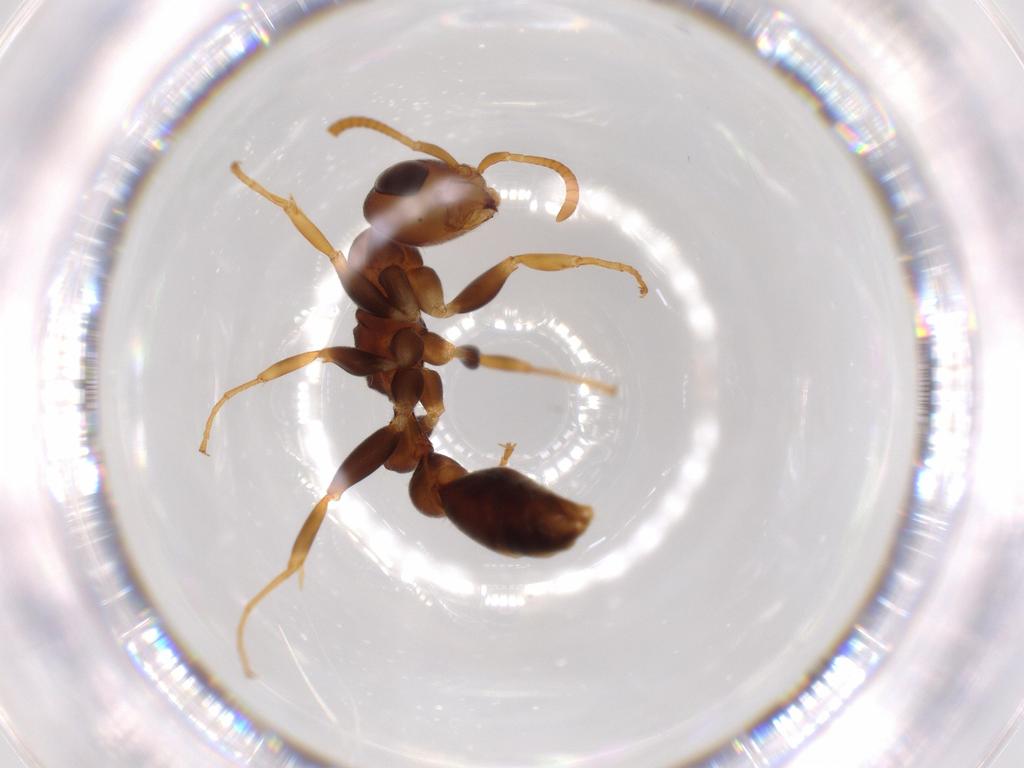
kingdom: Animalia
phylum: Arthropoda
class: Insecta
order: Hymenoptera
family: Formicidae
